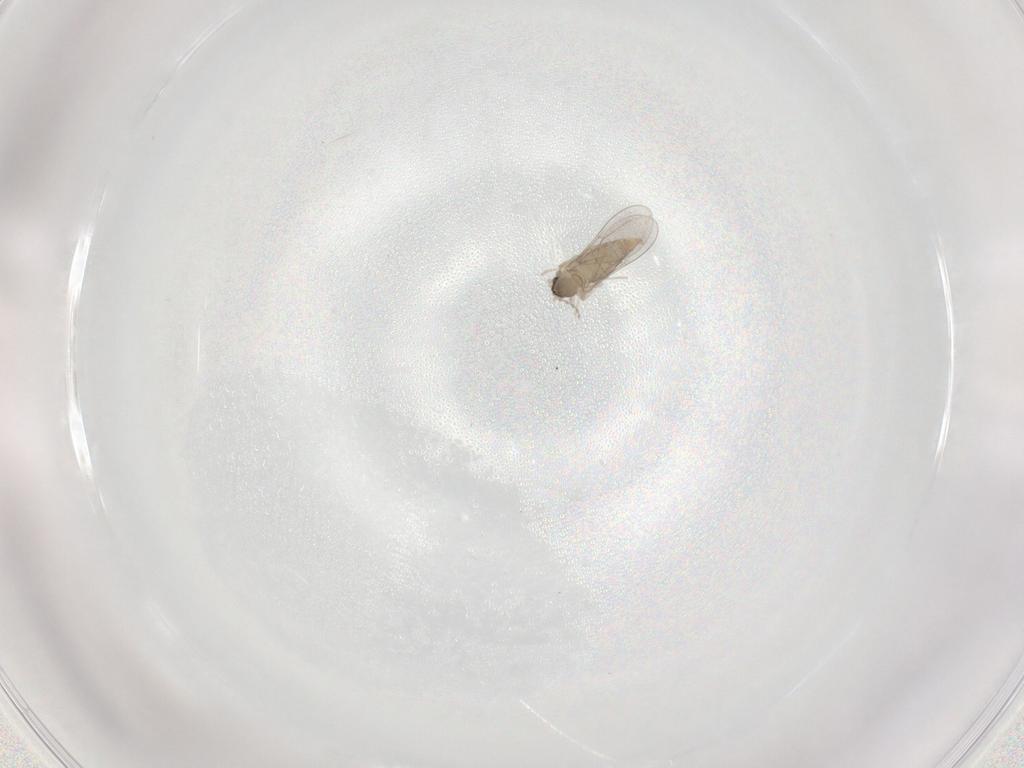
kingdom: Animalia
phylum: Arthropoda
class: Insecta
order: Diptera
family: Cecidomyiidae
